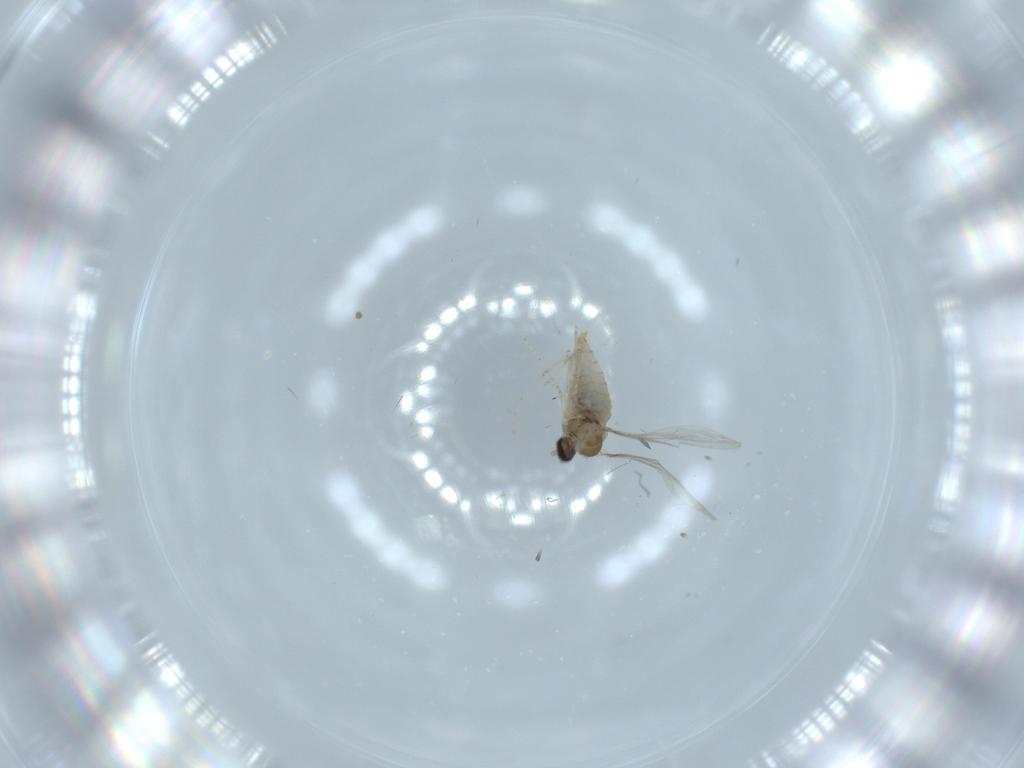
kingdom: Animalia
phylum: Arthropoda
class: Insecta
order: Diptera
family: Cecidomyiidae
